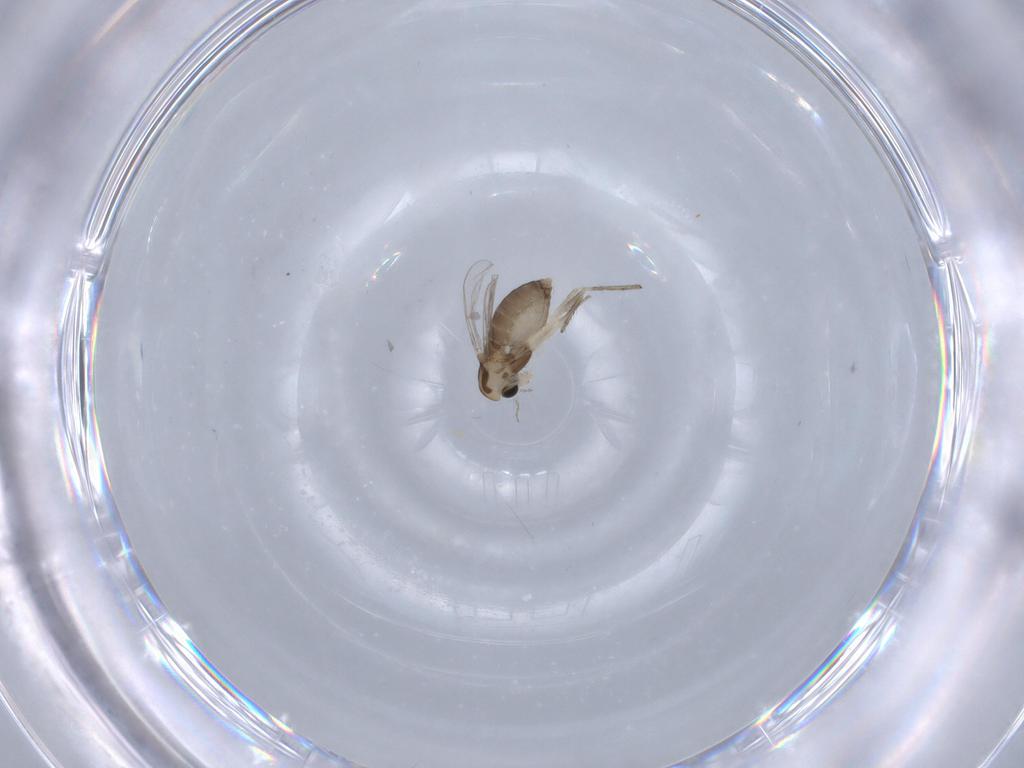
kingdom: Animalia
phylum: Arthropoda
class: Insecta
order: Diptera
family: Chironomidae
